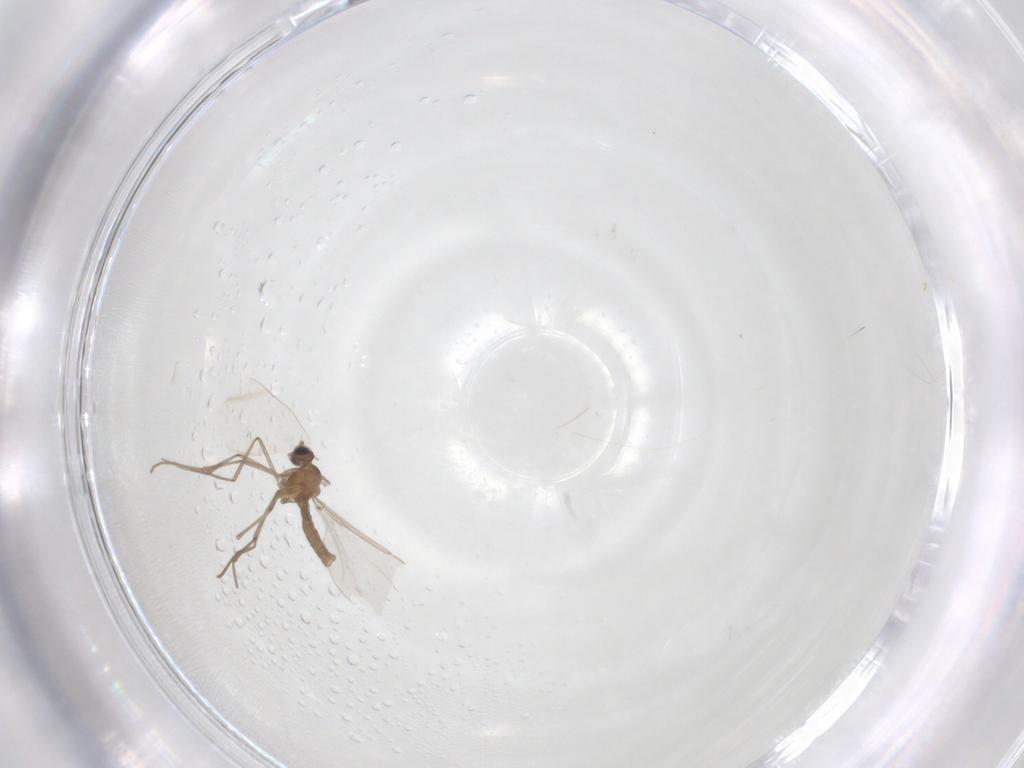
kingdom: Animalia
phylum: Arthropoda
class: Insecta
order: Diptera
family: Cecidomyiidae
